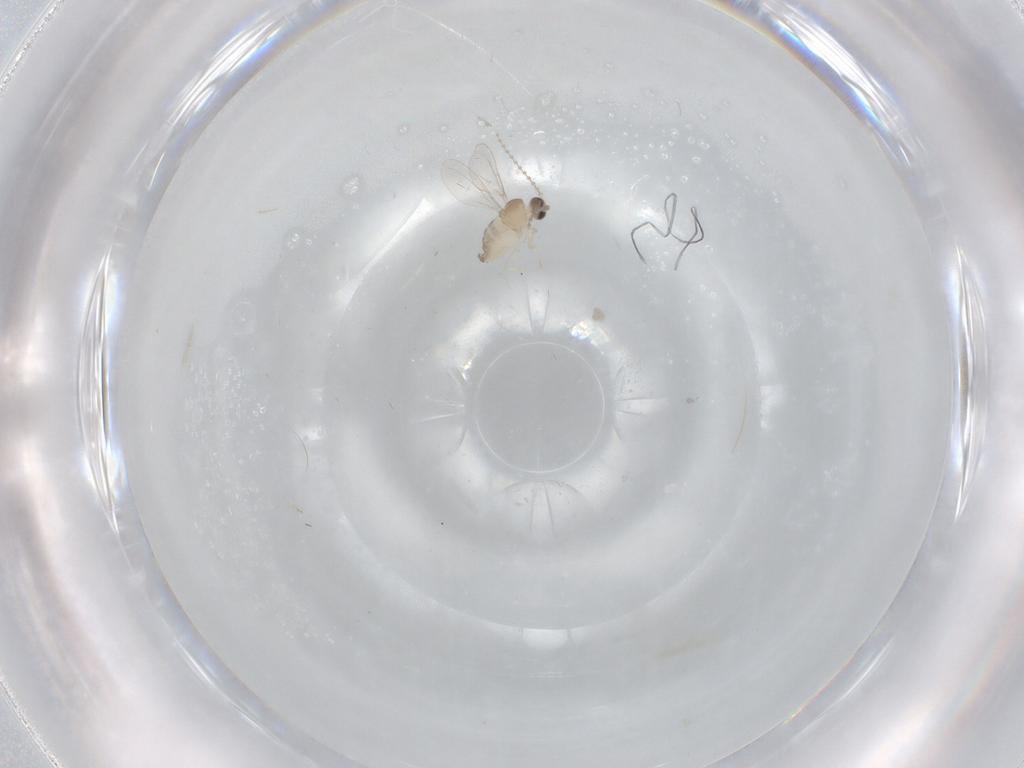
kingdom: Animalia
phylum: Arthropoda
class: Insecta
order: Diptera
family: Cecidomyiidae
